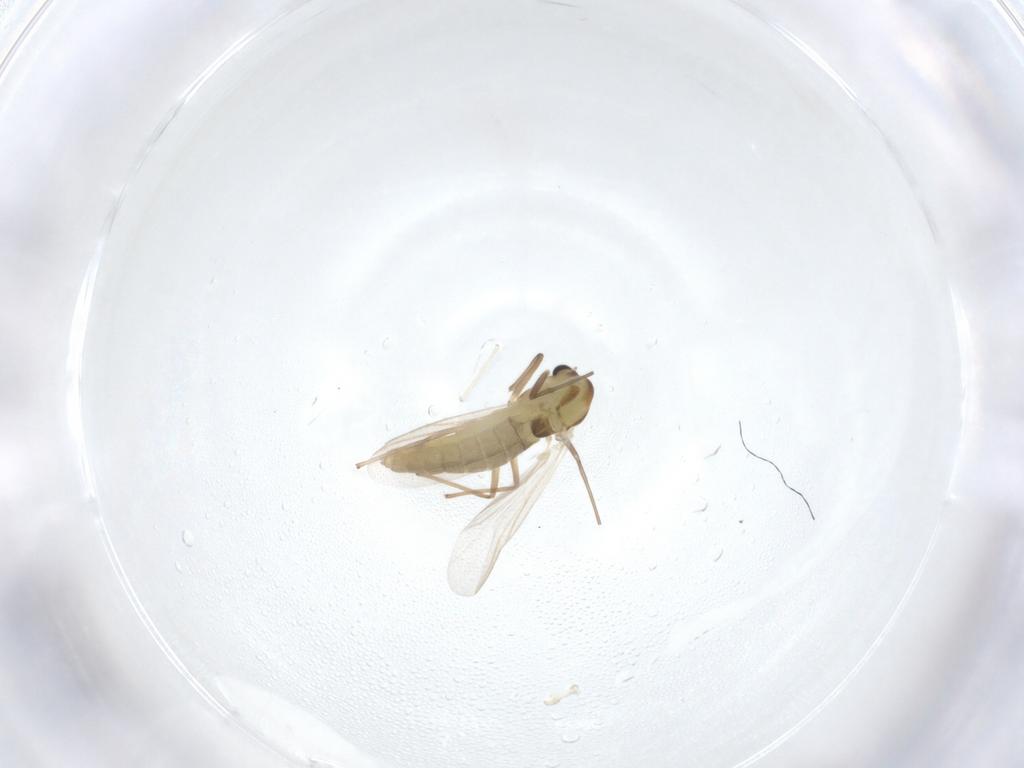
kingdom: Animalia
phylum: Arthropoda
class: Insecta
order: Diptera
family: Chironomidae
